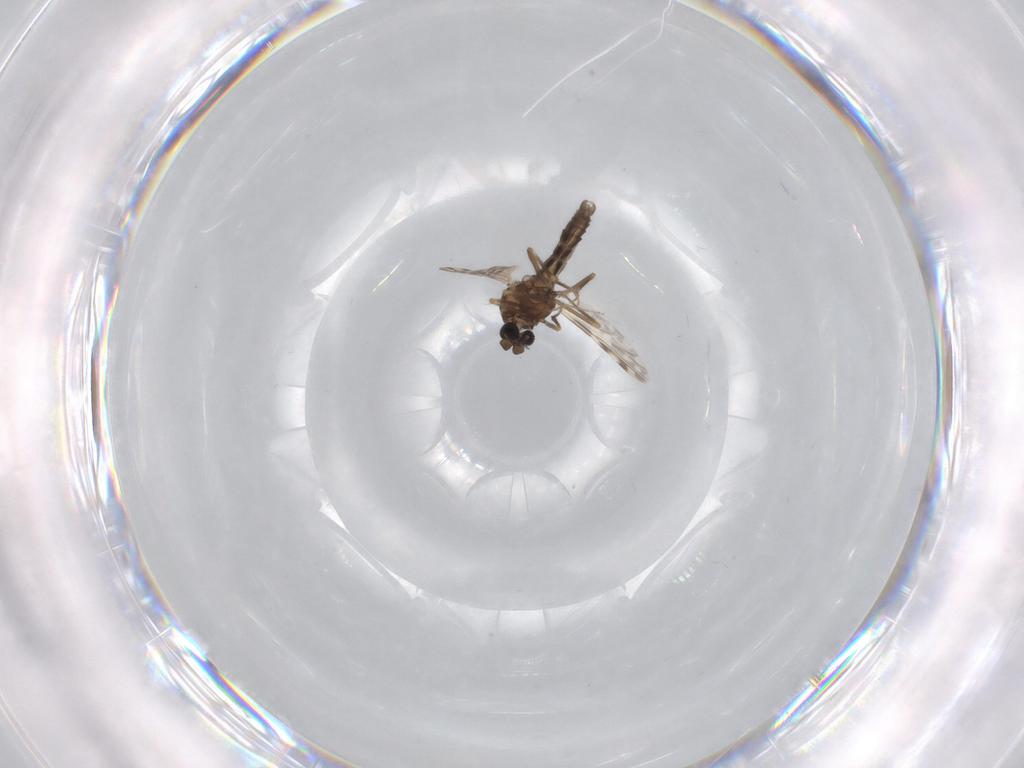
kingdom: Animalia
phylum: Arthropoda
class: Insecta
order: Diptera
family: Ceratopogonidae
